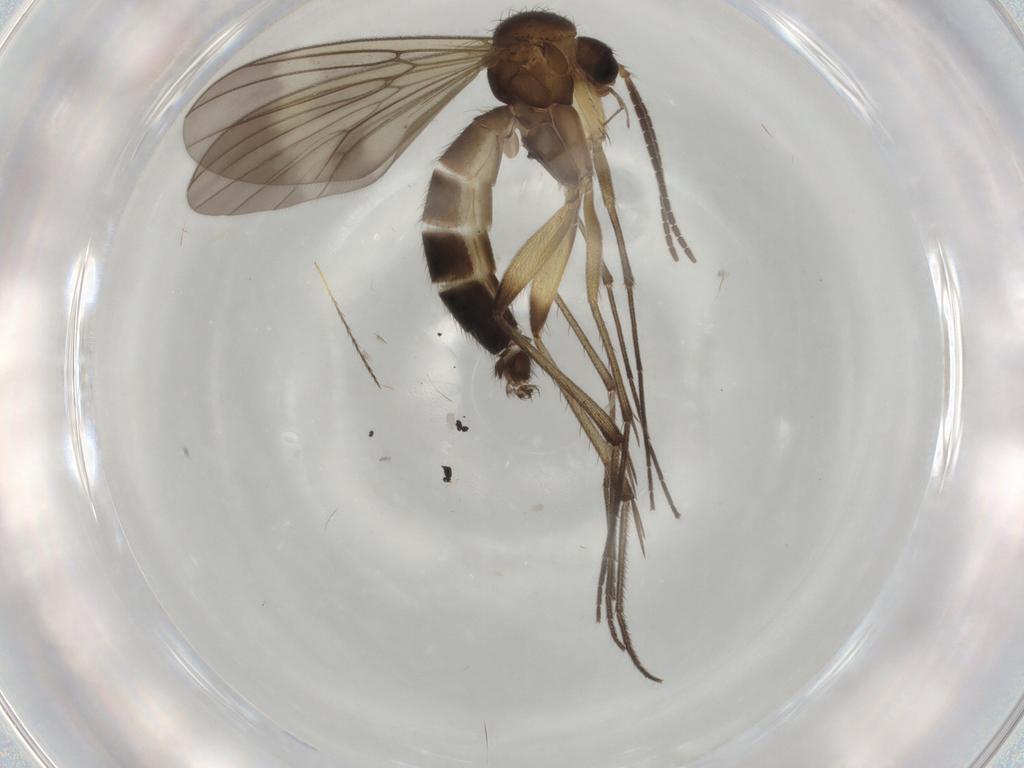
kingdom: Animalia
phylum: Arthropoda
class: Insecta
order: Diptera
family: Mycetophilidae
